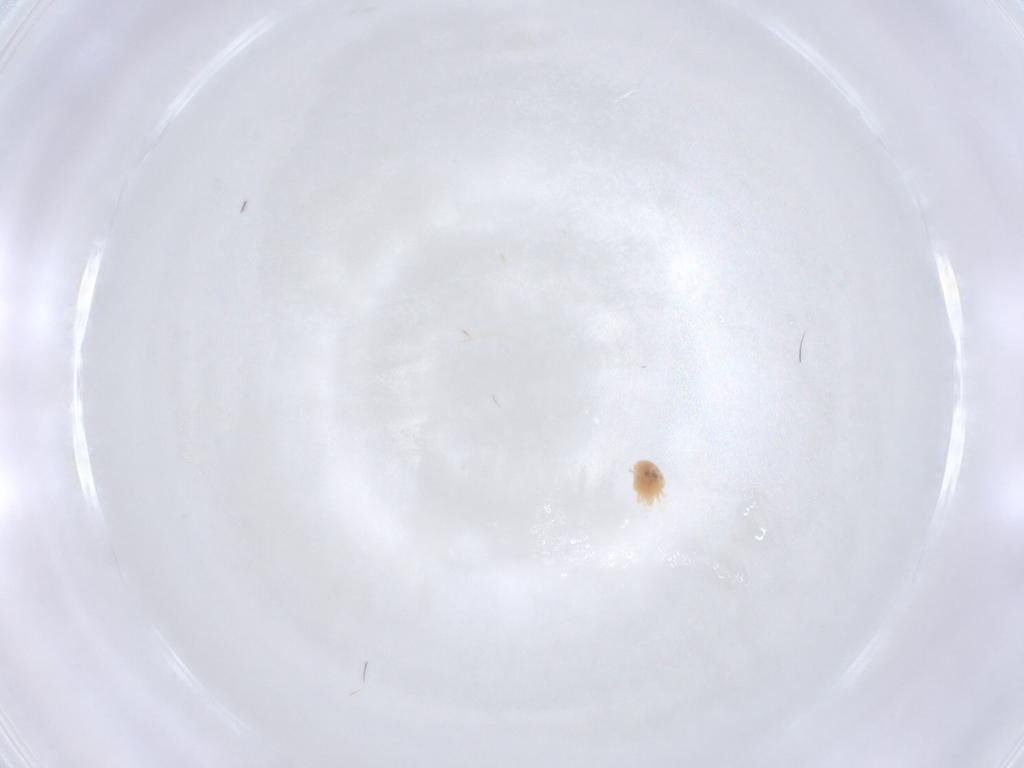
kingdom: Animalia
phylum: Arthropoda
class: Arachnida
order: Trombidiformes
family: Tetranychidae
